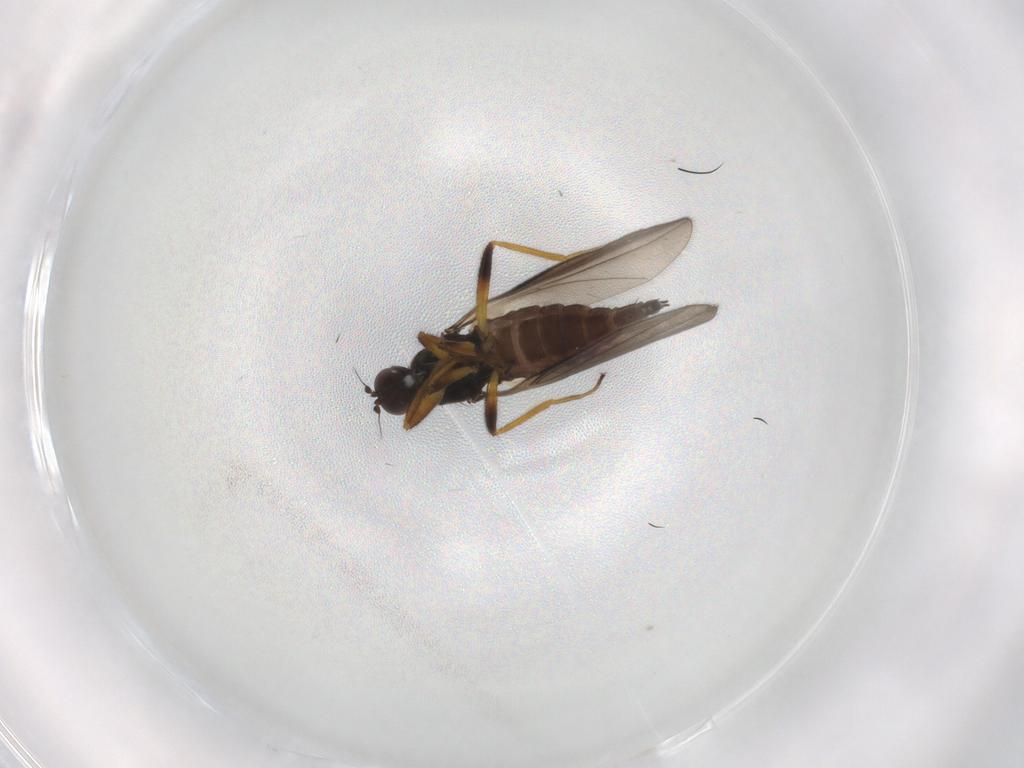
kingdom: Animalia
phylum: Arthropoda
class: Insecta
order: Diptera
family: Hybotidae
